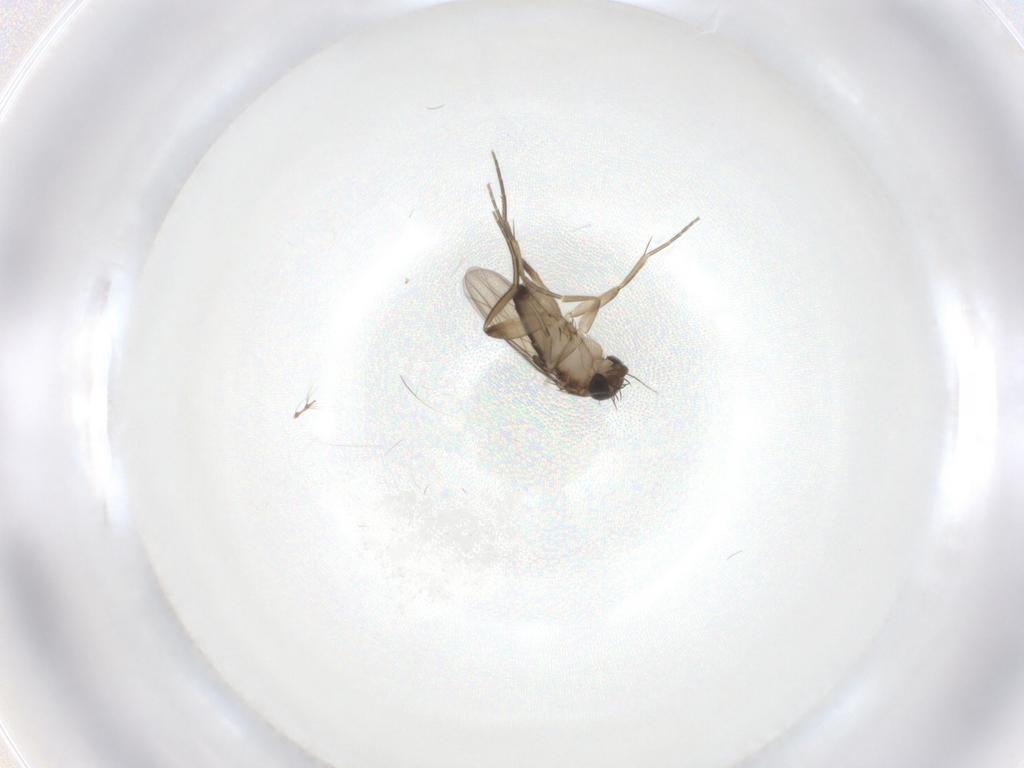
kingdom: Animalia
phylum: Arthropoda
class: Insecta
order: Diptera
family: Phoridae
